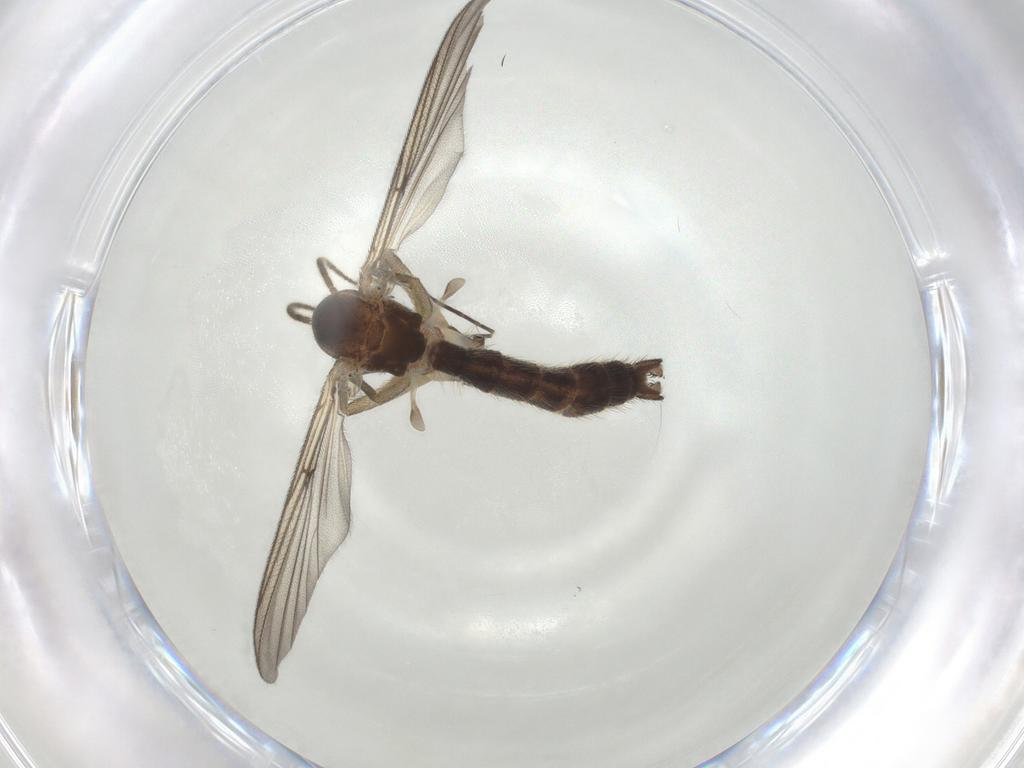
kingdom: Animalia
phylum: Arthropoda
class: Insecta
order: Diptera
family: Ceratopogonidae
